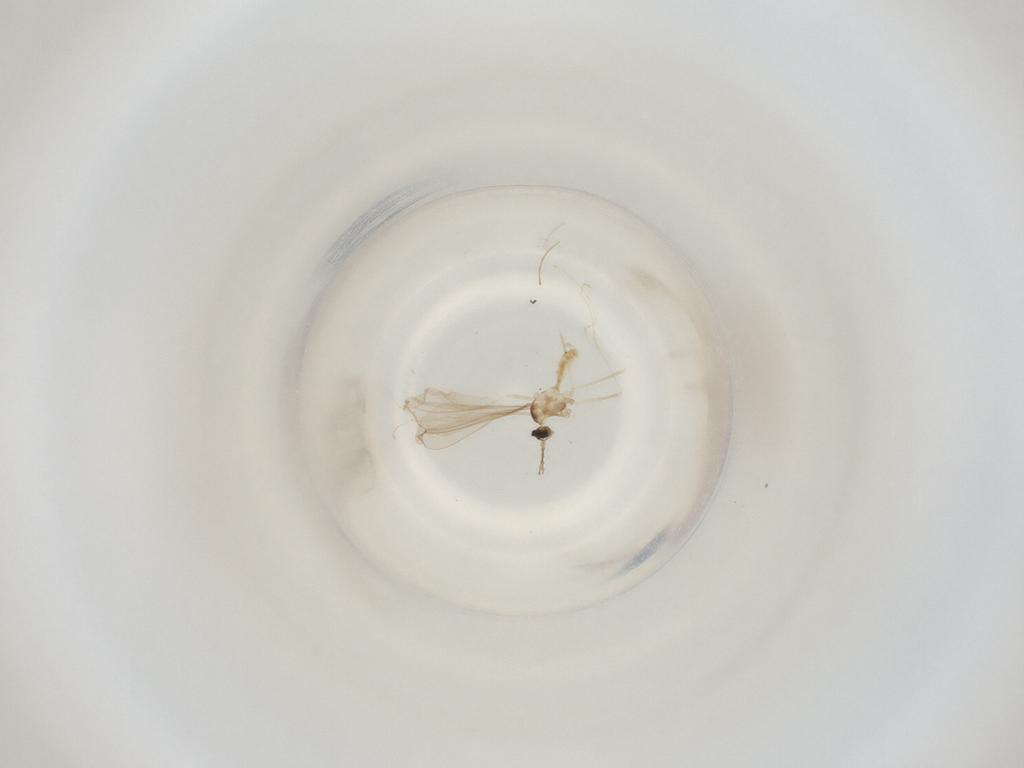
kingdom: Animalia
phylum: Arthropoda
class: Insecta
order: Diptera
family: Cecidomyiidae
